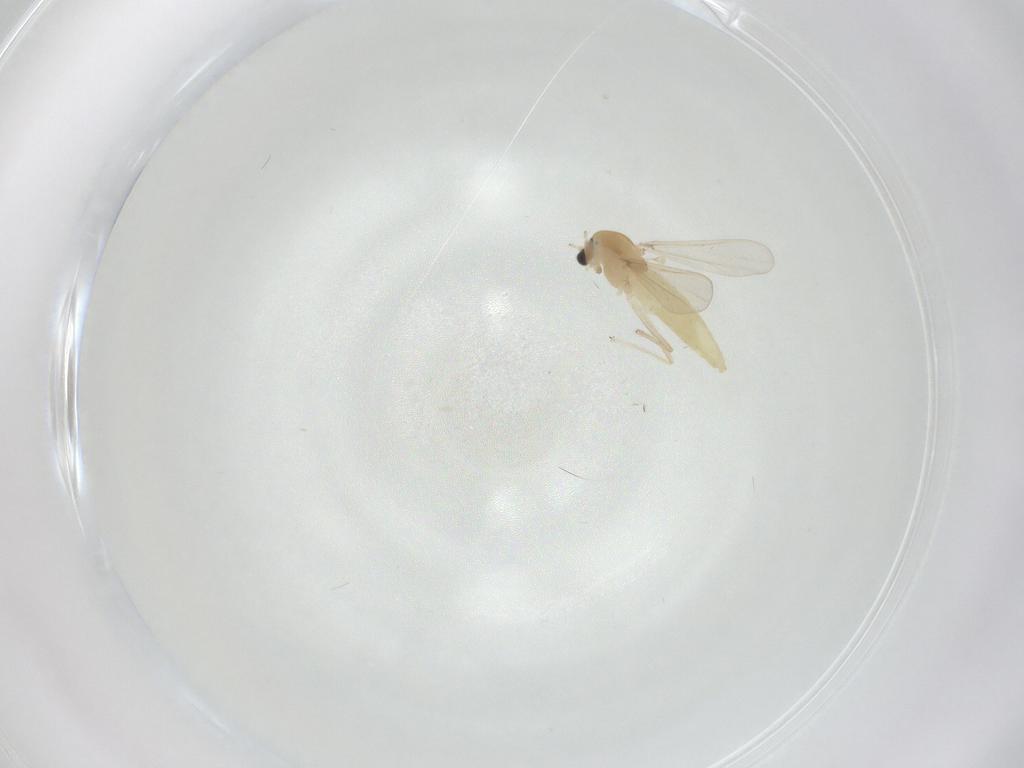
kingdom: Animalia
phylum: Arthropoda
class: Insecta
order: Diptera
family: Chironomidae
